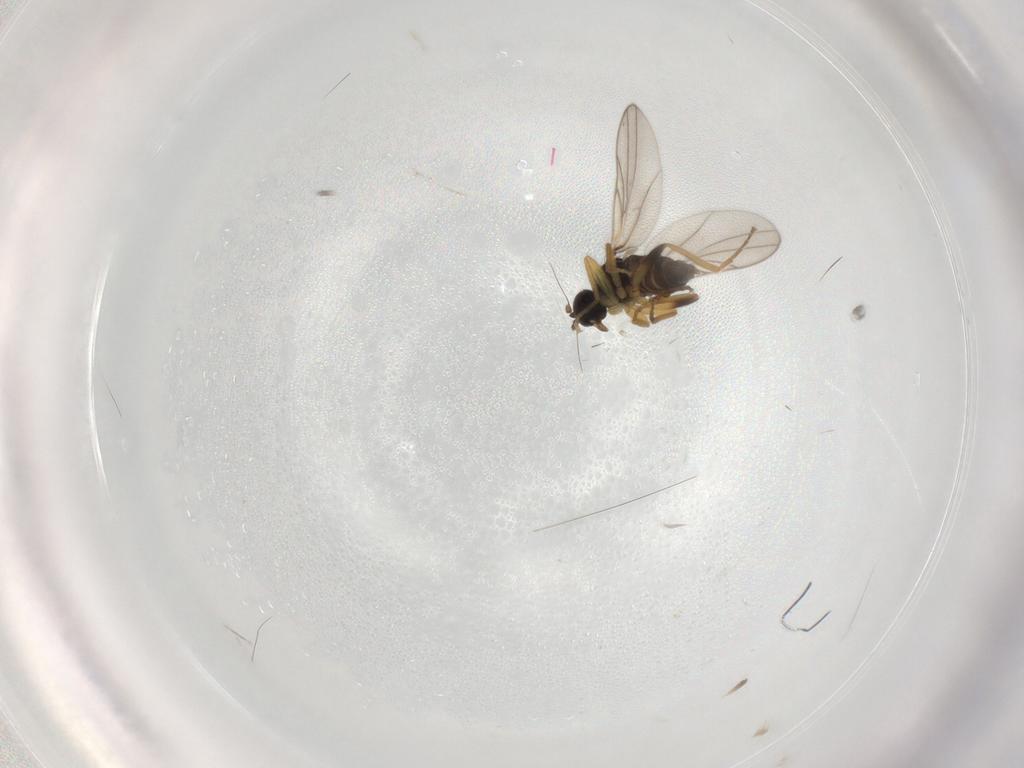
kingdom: Animalia
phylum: Arthropoda
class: Insecta
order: Diptera
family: Hybotidae
